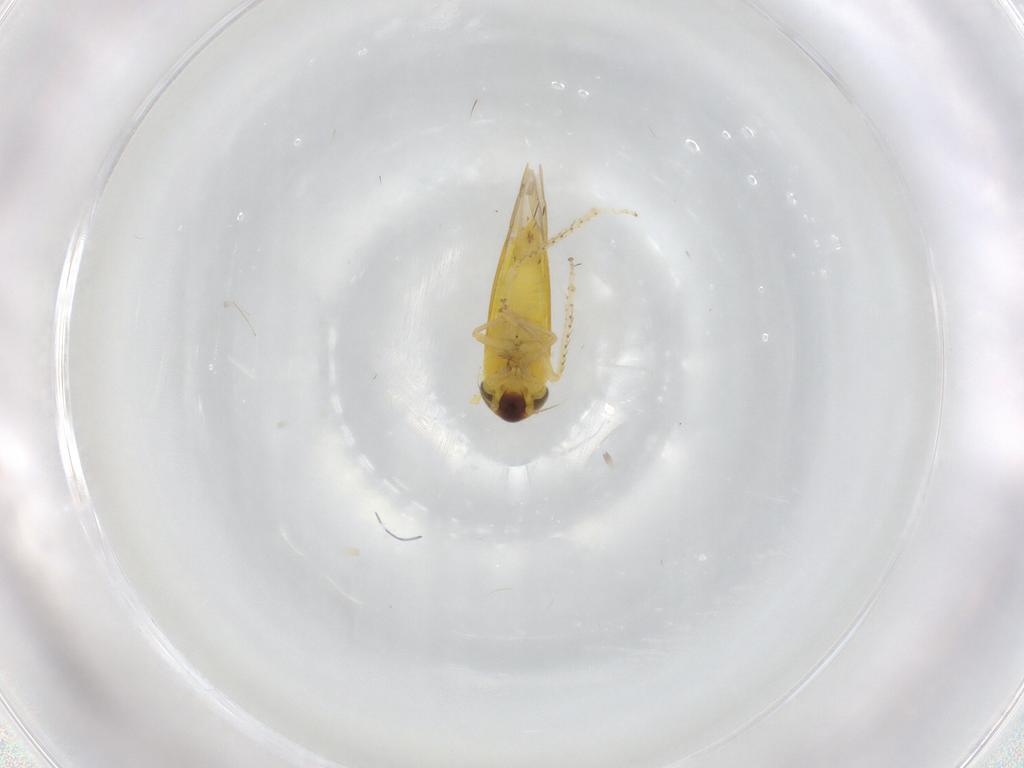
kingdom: Animalia
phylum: Arthropoda
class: Insecta
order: Hemiptera
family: Cicadellidae
